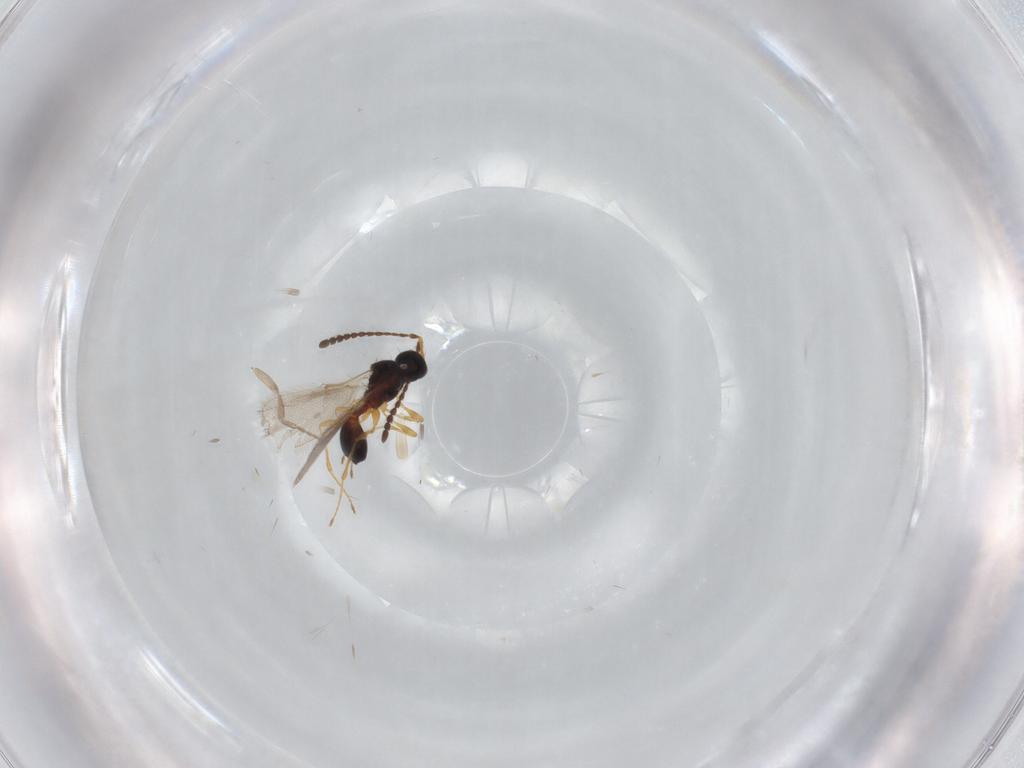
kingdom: Animalia
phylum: Arthropoda
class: Insecta
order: Hymenoptera
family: Diapriidae
